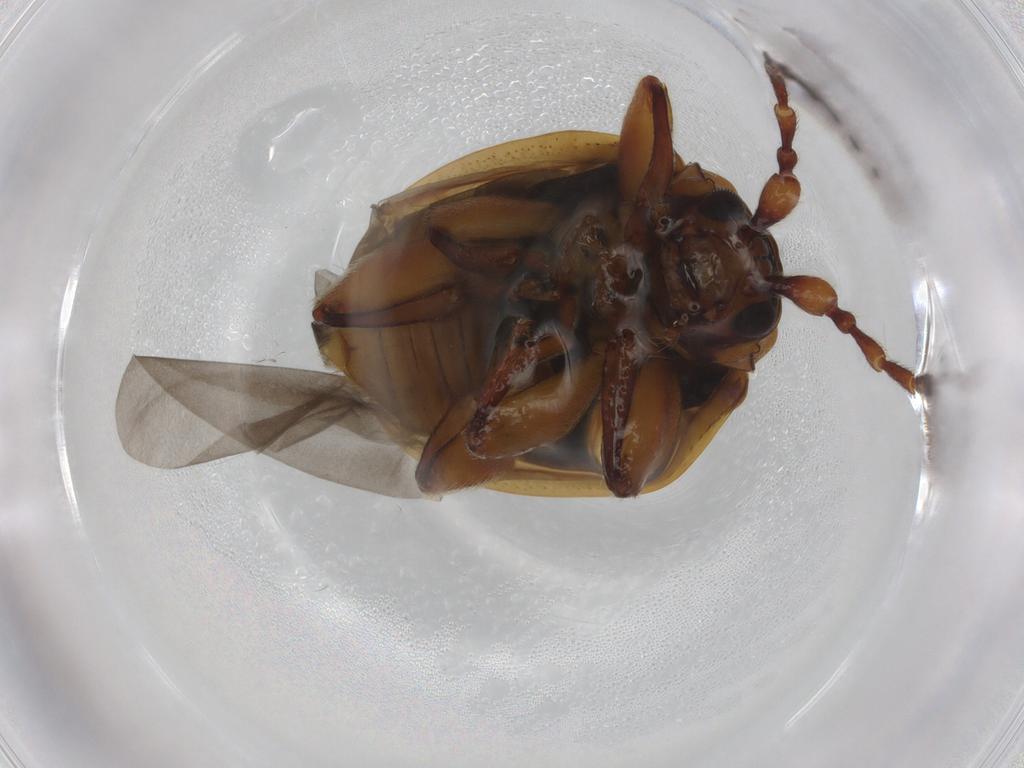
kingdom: Animalia
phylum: Arthropoda
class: Insecta
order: Coleoptera
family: Chrysomelidae
